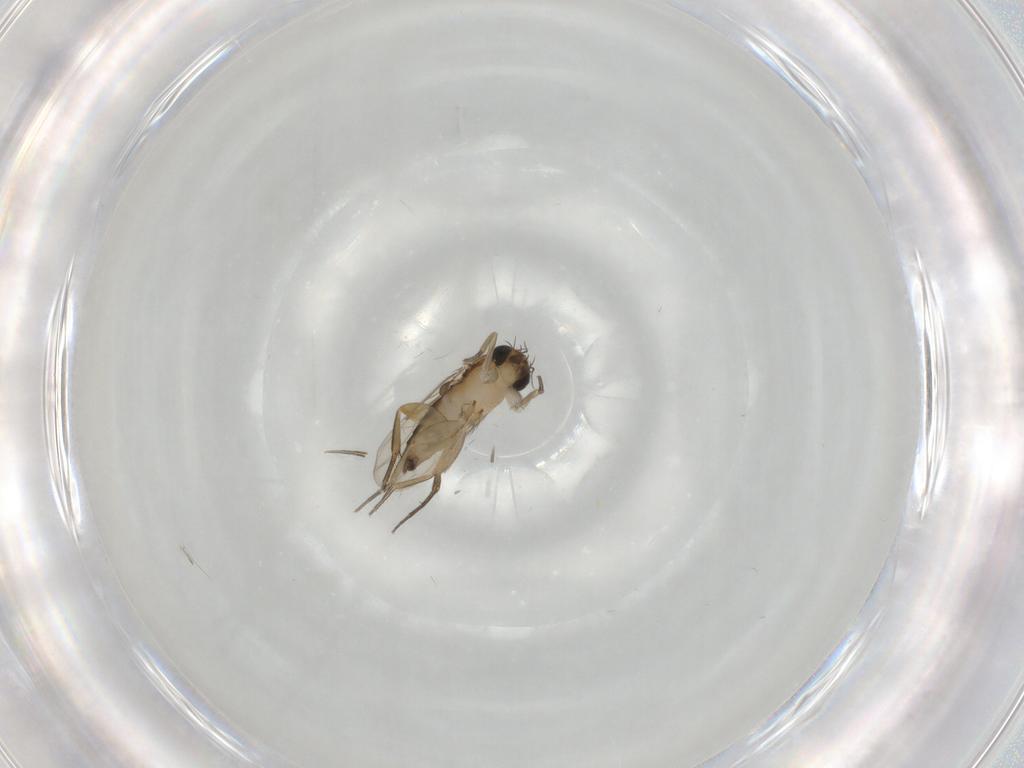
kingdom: Animalia
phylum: Arthropoda
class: Insecta
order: Diptera
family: Phoridae
